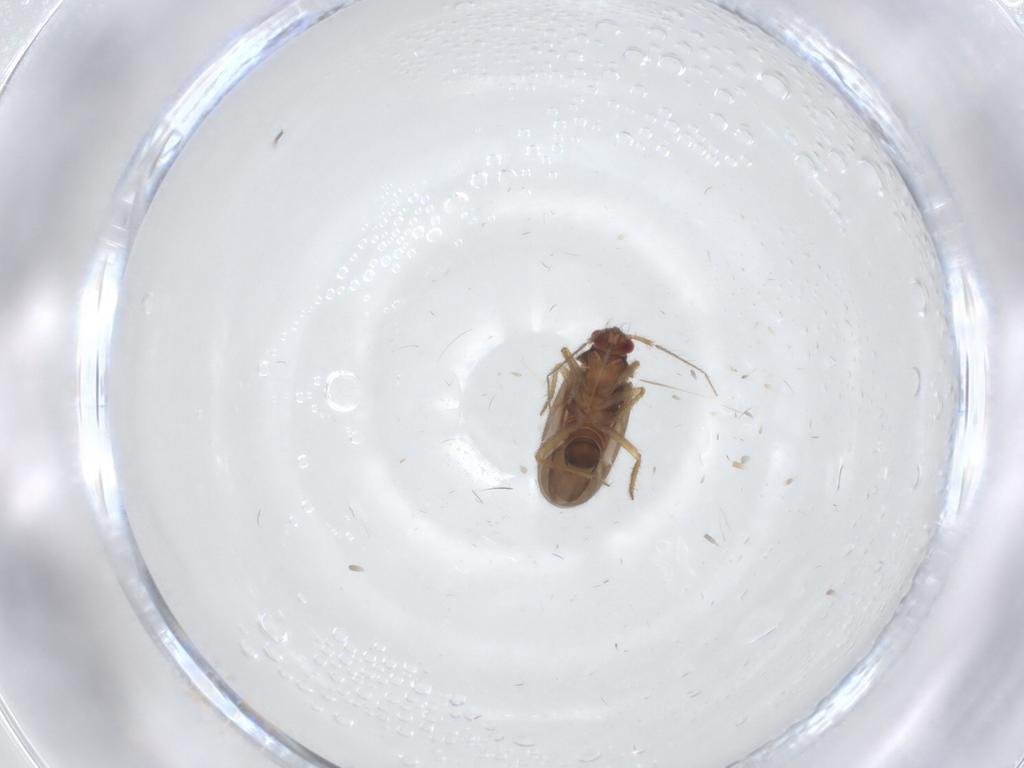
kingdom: Animalia
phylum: Arthropoda
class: Insecta
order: Hemiptera
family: Ceratocombidae
